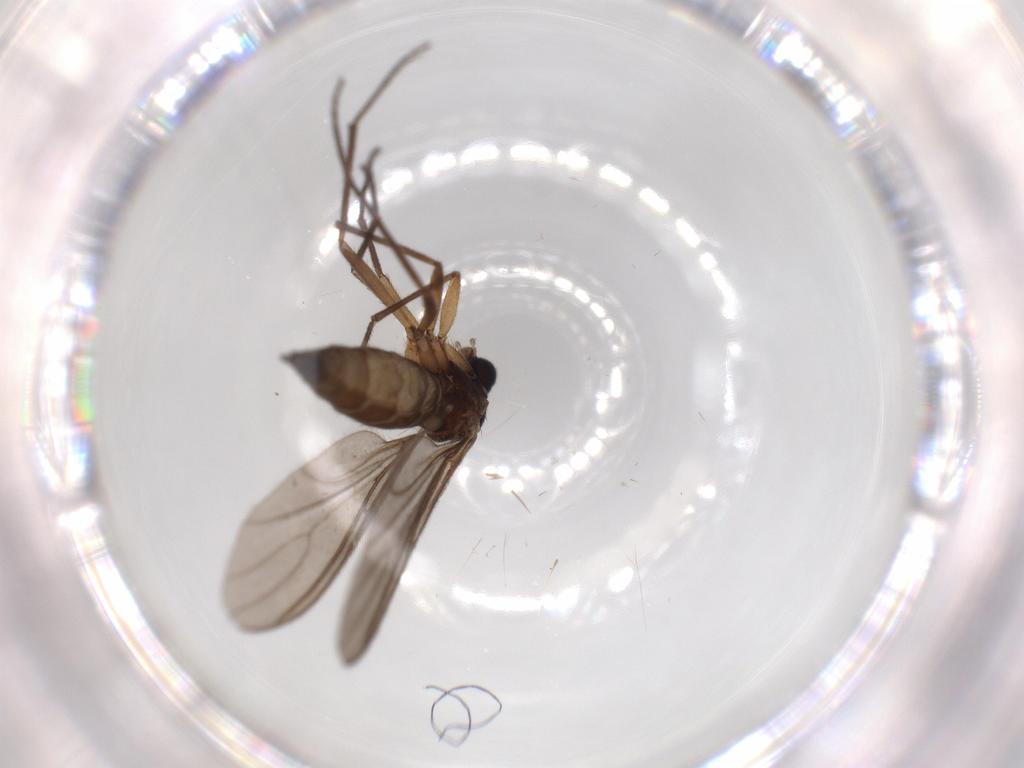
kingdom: Animalia
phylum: Arthropoda
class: Insecta
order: Diptera
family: Sciaridae
